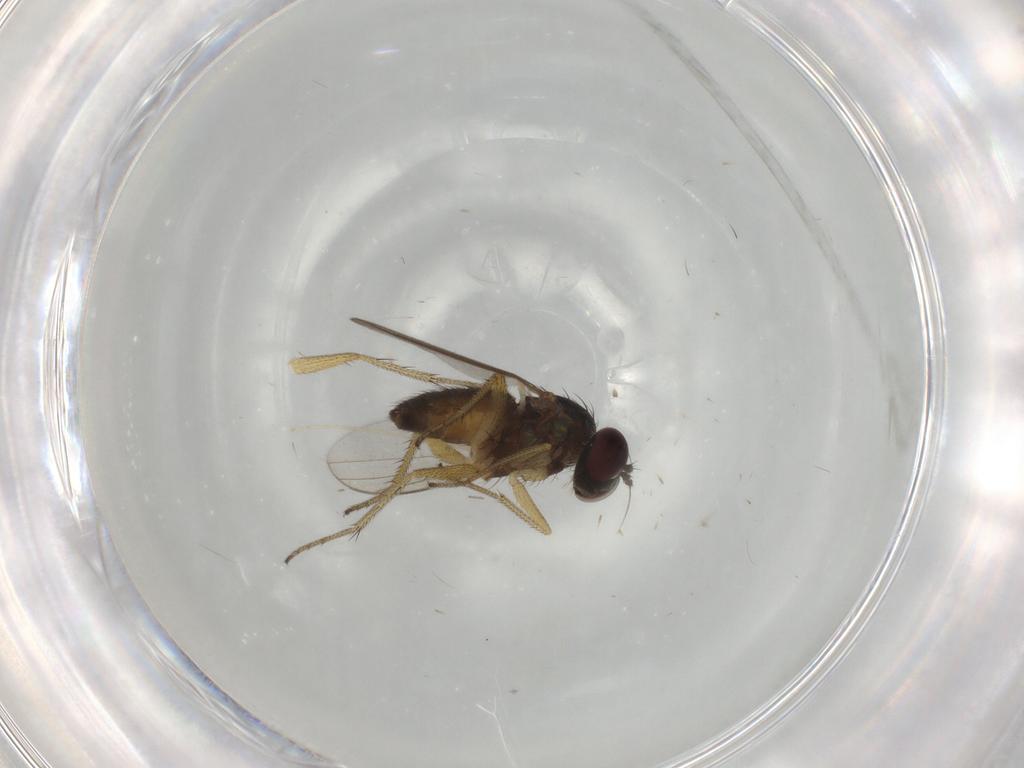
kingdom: Animalia
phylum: Arthropoda
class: Insecta
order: Diptera
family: Dolichopodidae
